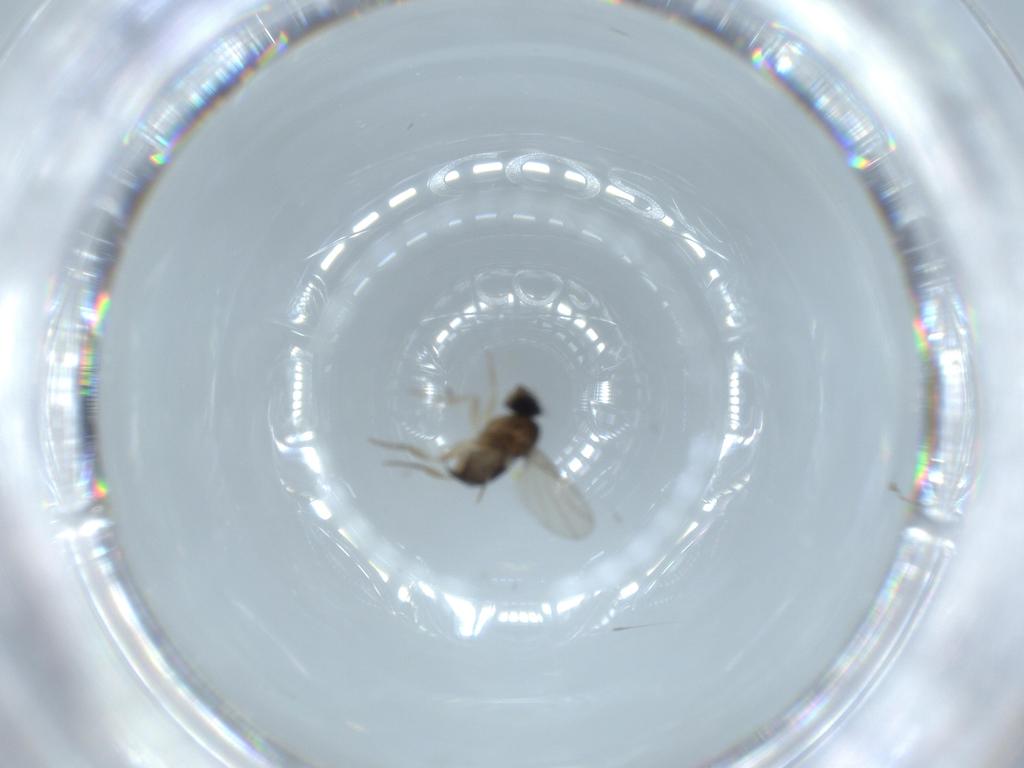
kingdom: Animalia
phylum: Arthropoda
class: Insecta
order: Diptera
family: Phoridae
